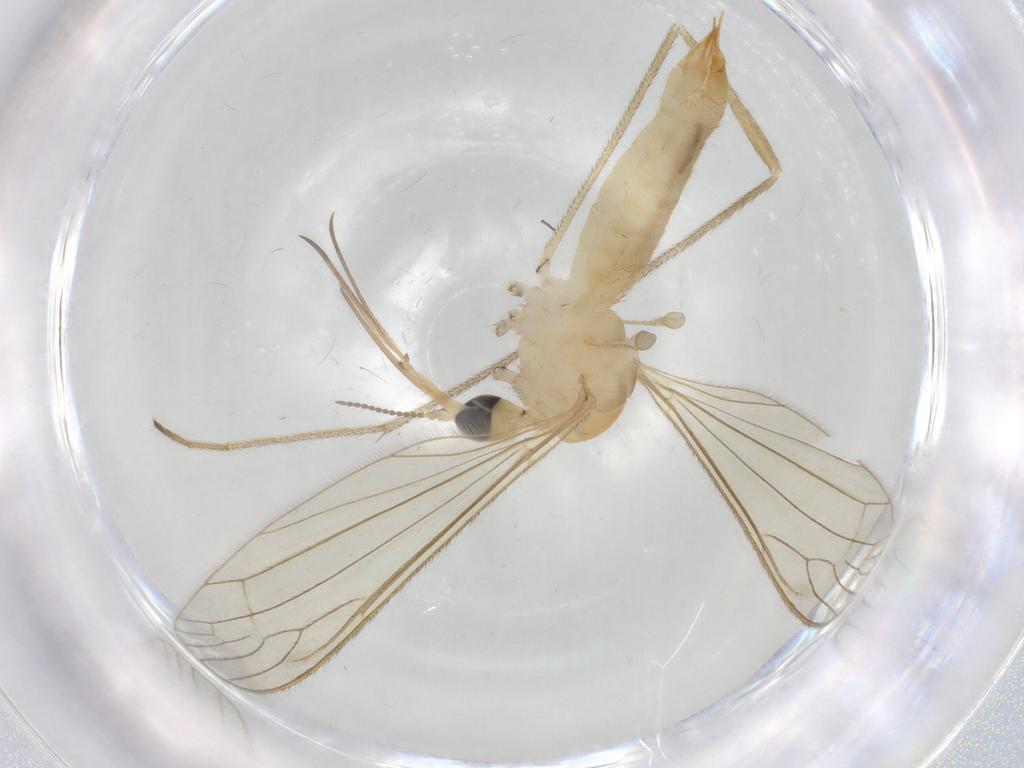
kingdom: Animalia
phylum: Arthropoda
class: Insecta
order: Diptera
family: Limoniidae
